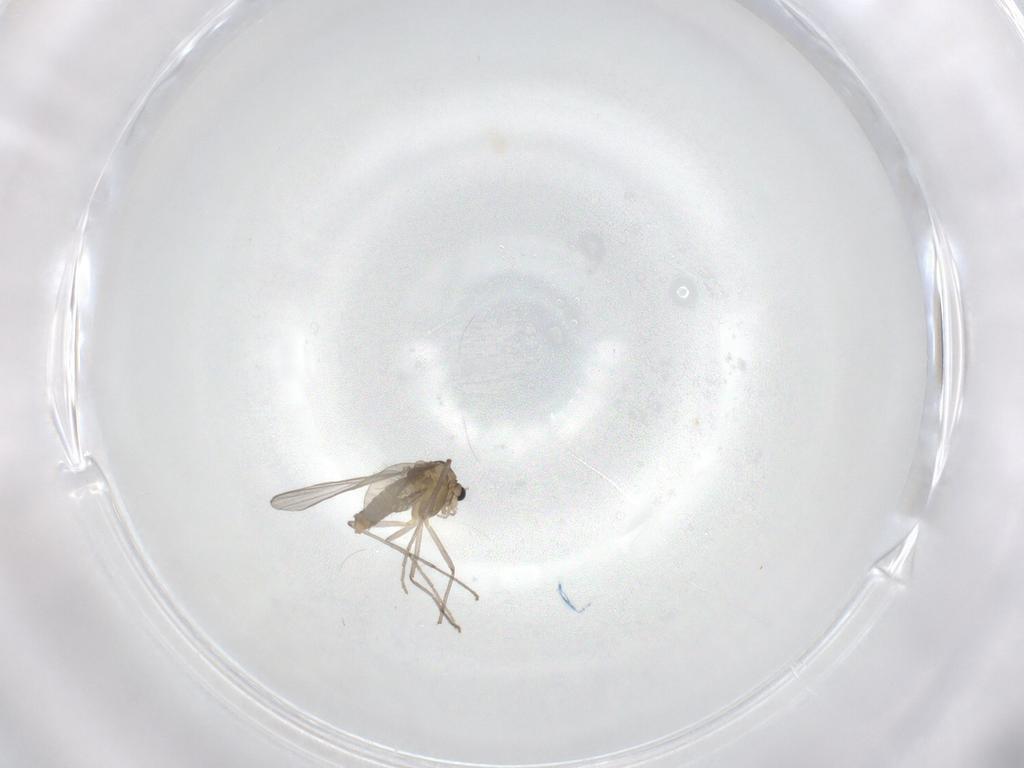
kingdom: Animalia
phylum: Arthropoda
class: Insecta
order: Diptera
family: Chironomidae
